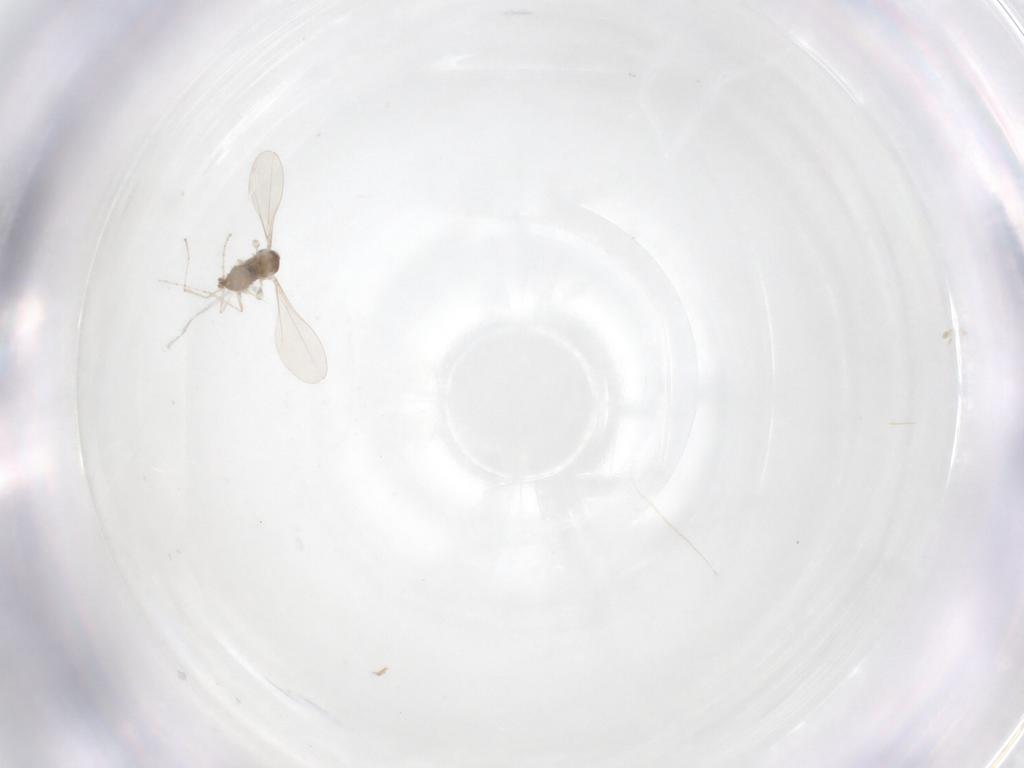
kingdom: Animalia
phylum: Arthropoda
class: Insecta
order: Diptera
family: Cecidomyiidae
